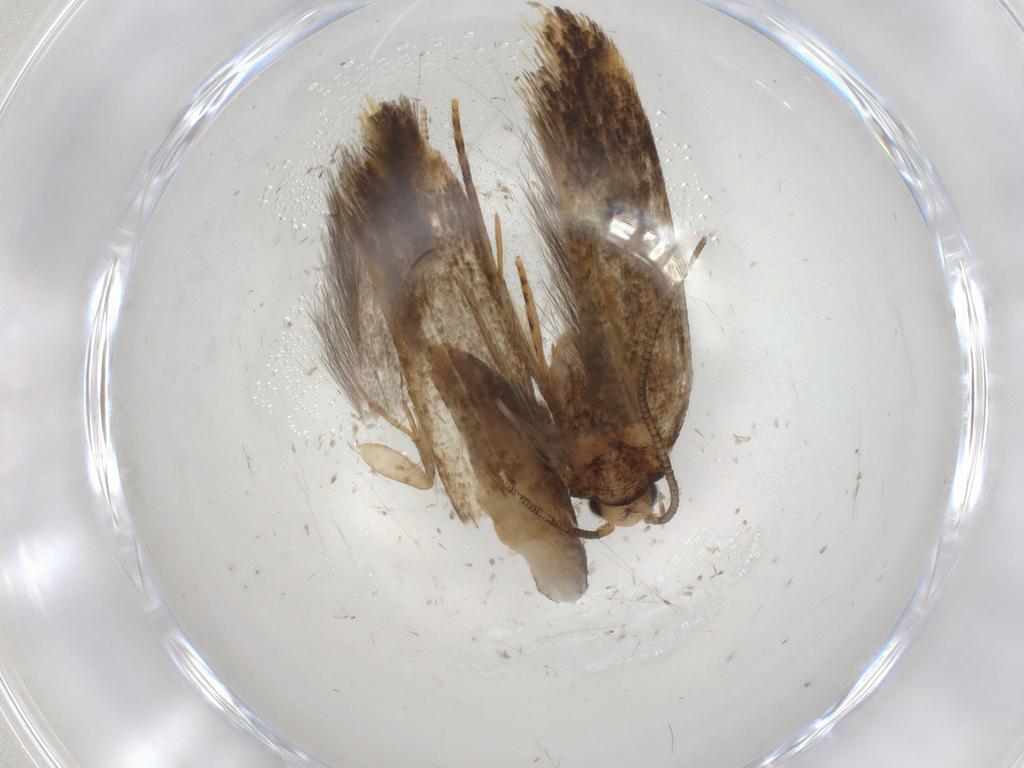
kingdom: Animalia
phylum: Arthropoda
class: Insecta
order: Lepidoptera
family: Tineidae
